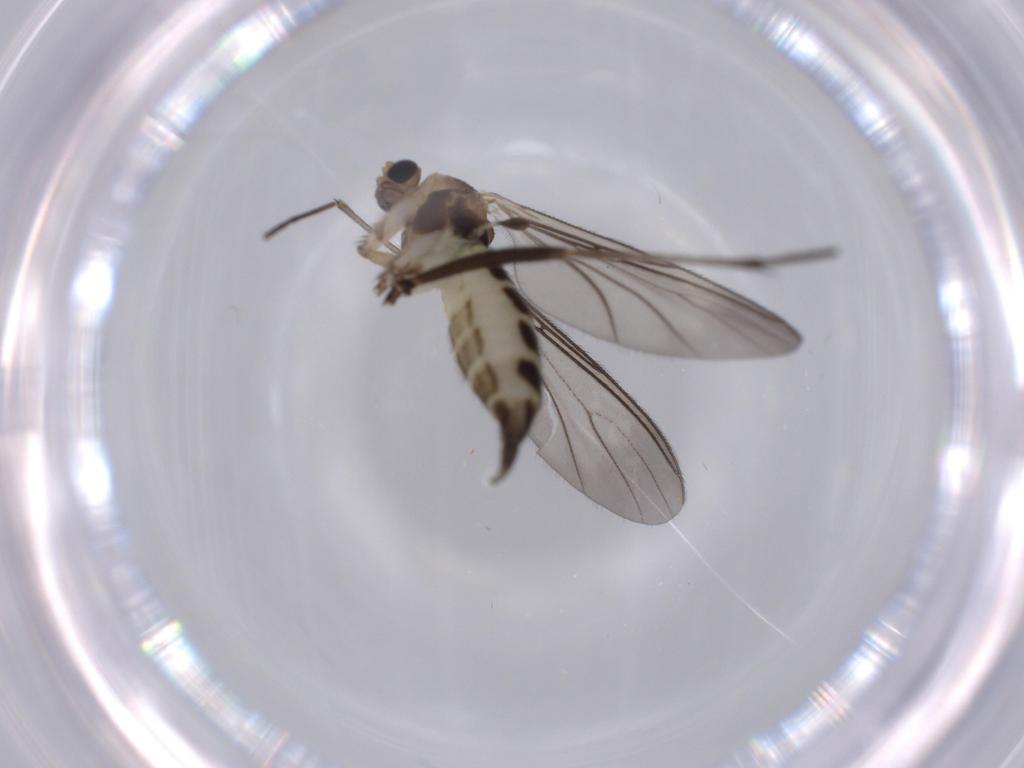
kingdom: Animalia
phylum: Arthropoda
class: Insecta
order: Diptera
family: Sciaridae
